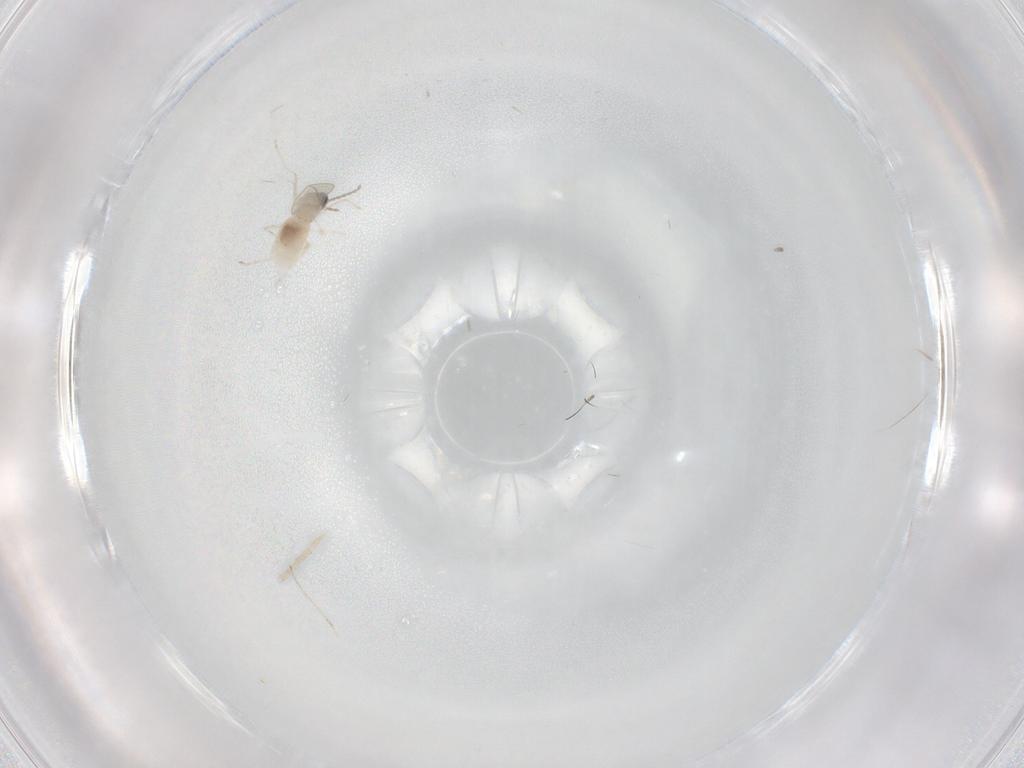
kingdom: Animalia
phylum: Arthropoda
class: Insecta
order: Diptera
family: Cecidomyiidae
